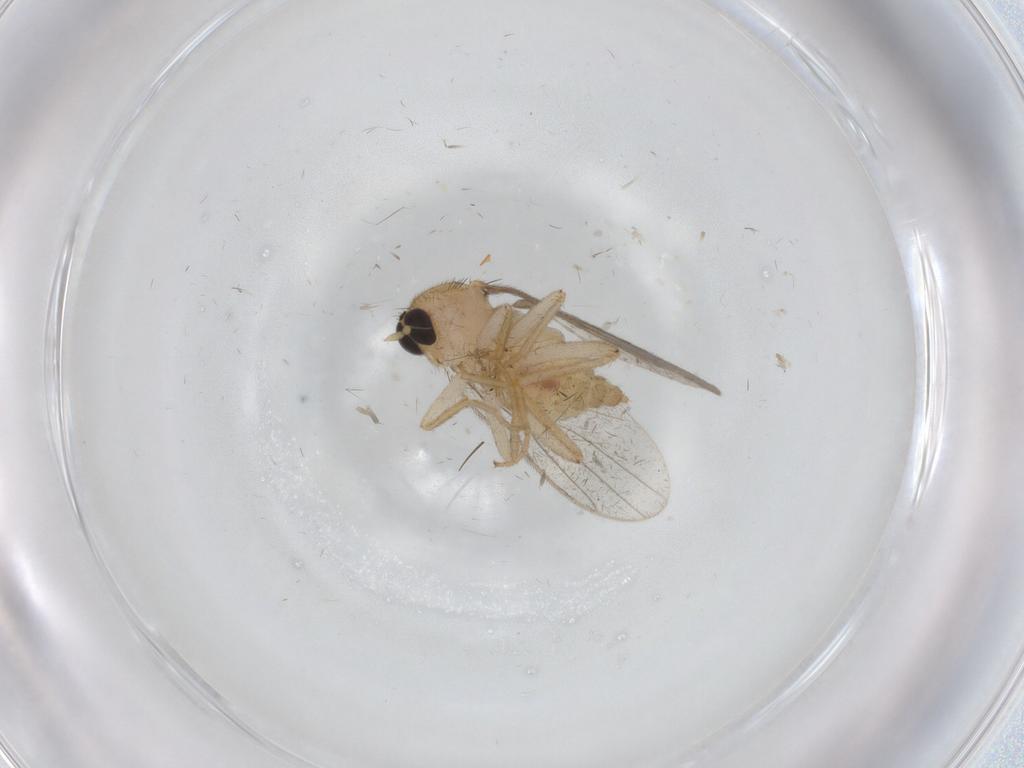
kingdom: Animalia
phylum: Arthropoda
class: Insecta
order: Diptera
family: Hybotidae
